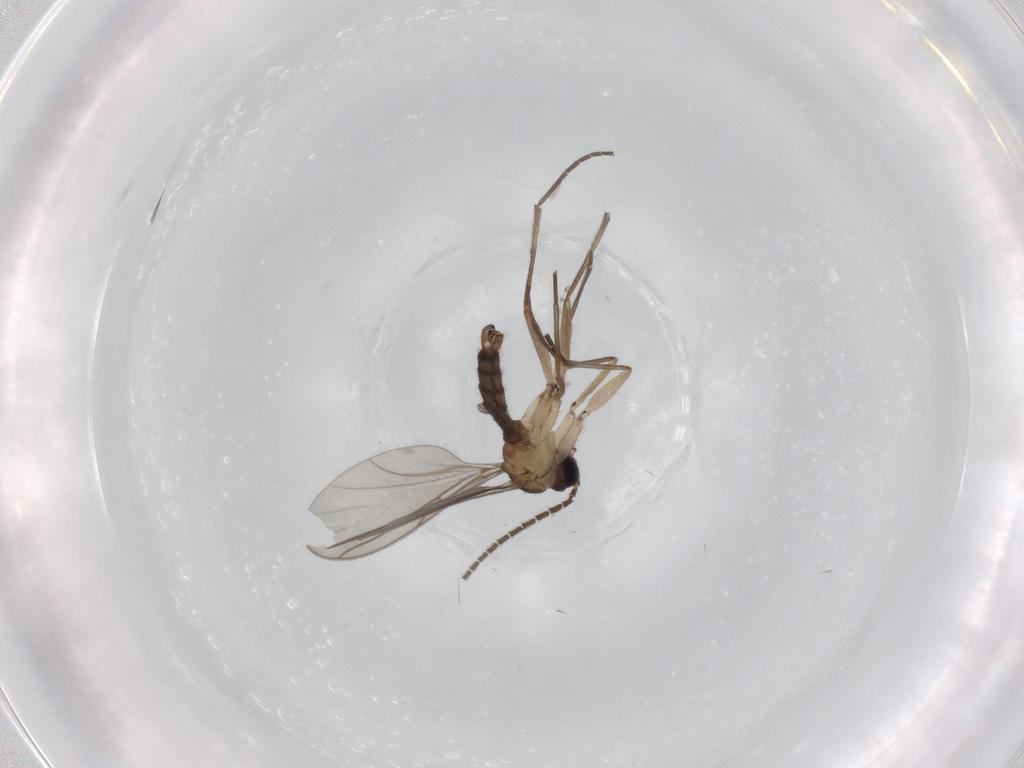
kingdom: Animalia
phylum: Arthropoda
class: Insecta
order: Diptera
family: Sciaridae
